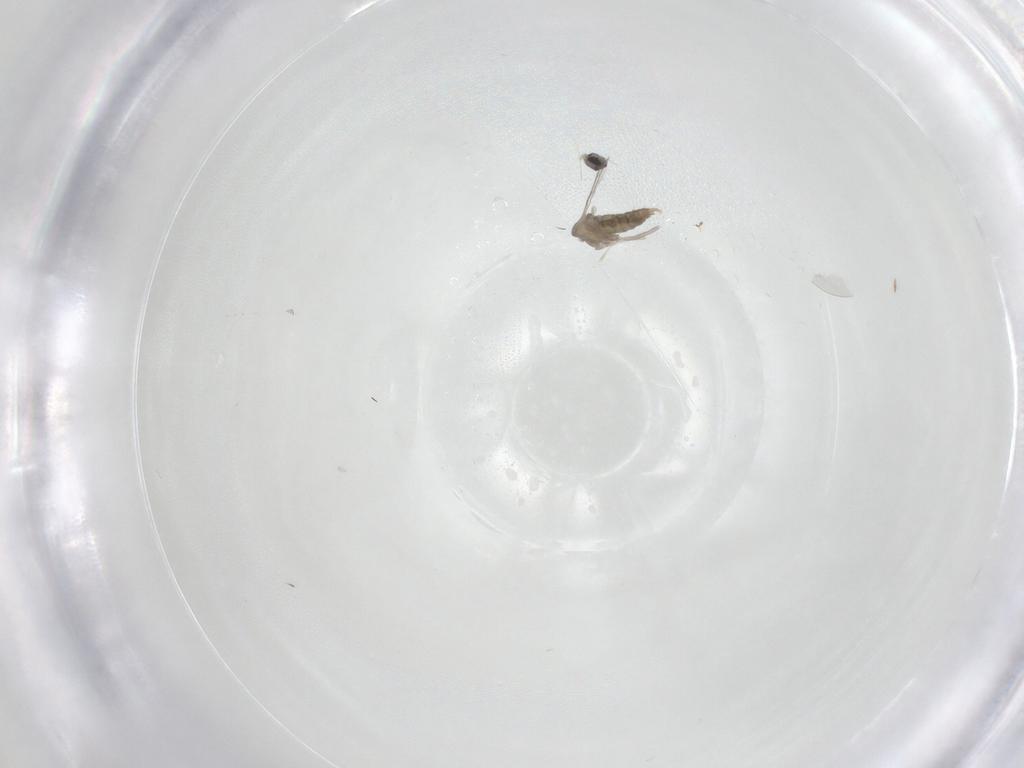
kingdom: Animalia
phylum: Arthropoda
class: Insecta
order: Diptera
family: Cecidomyiidae
